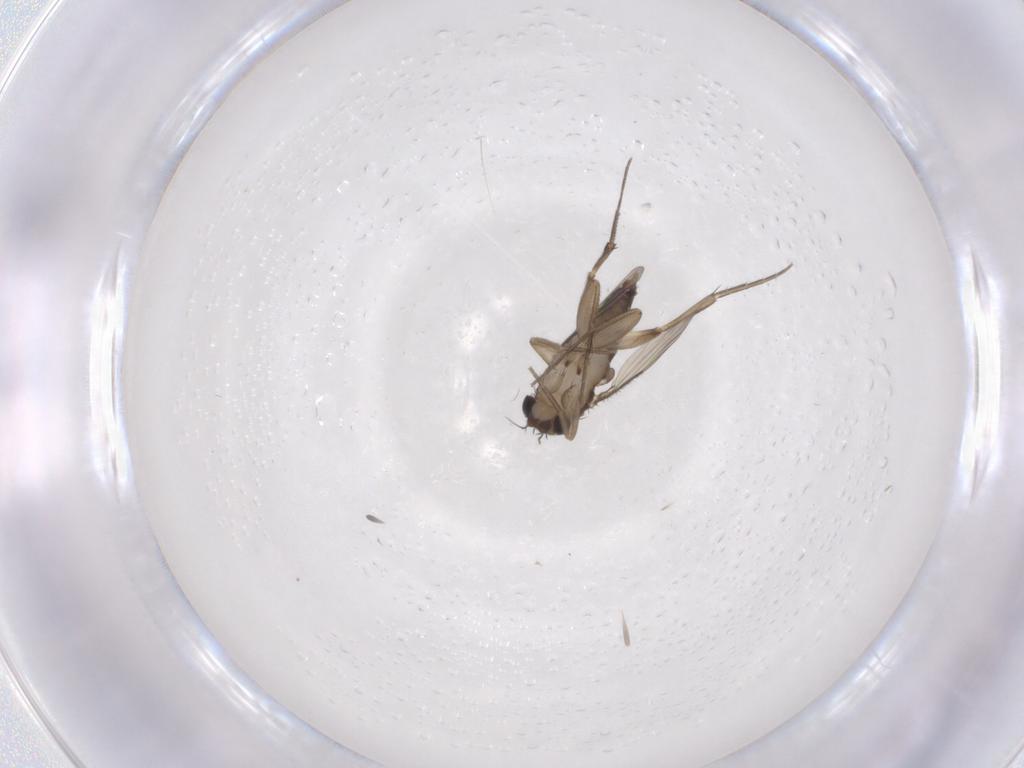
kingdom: Animalia
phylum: Arthropoda
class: Insecta
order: Diptera
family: Phoridae
